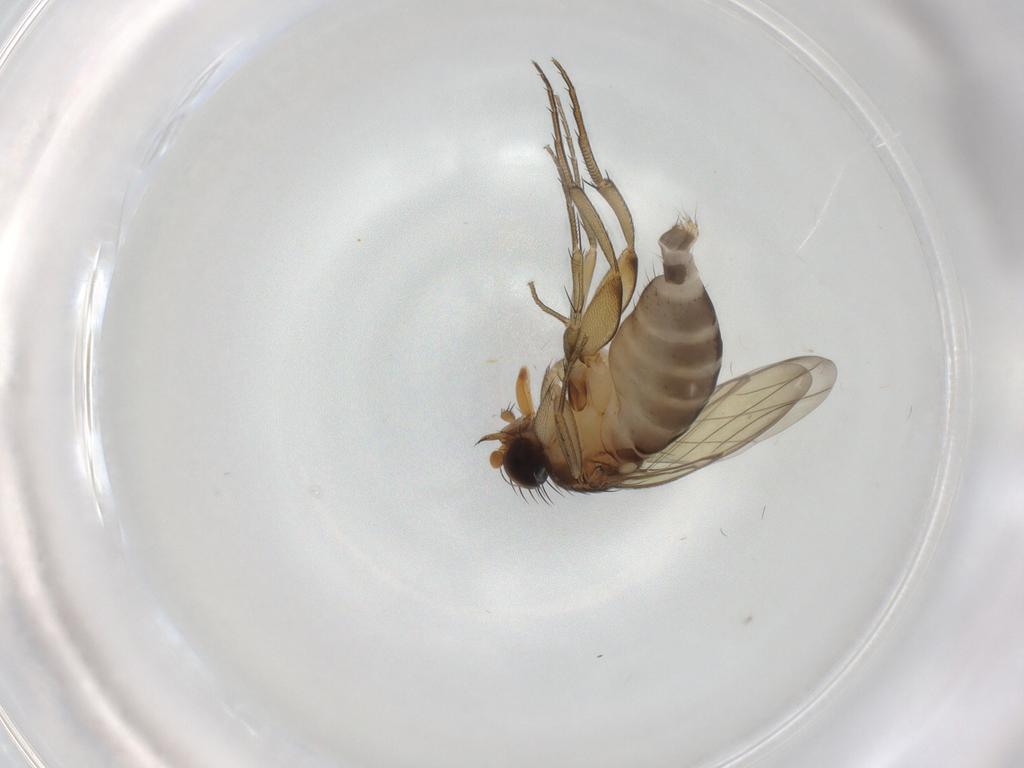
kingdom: Animalia
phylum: Arthropoda
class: Insecta
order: Diptera
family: Phoridae
